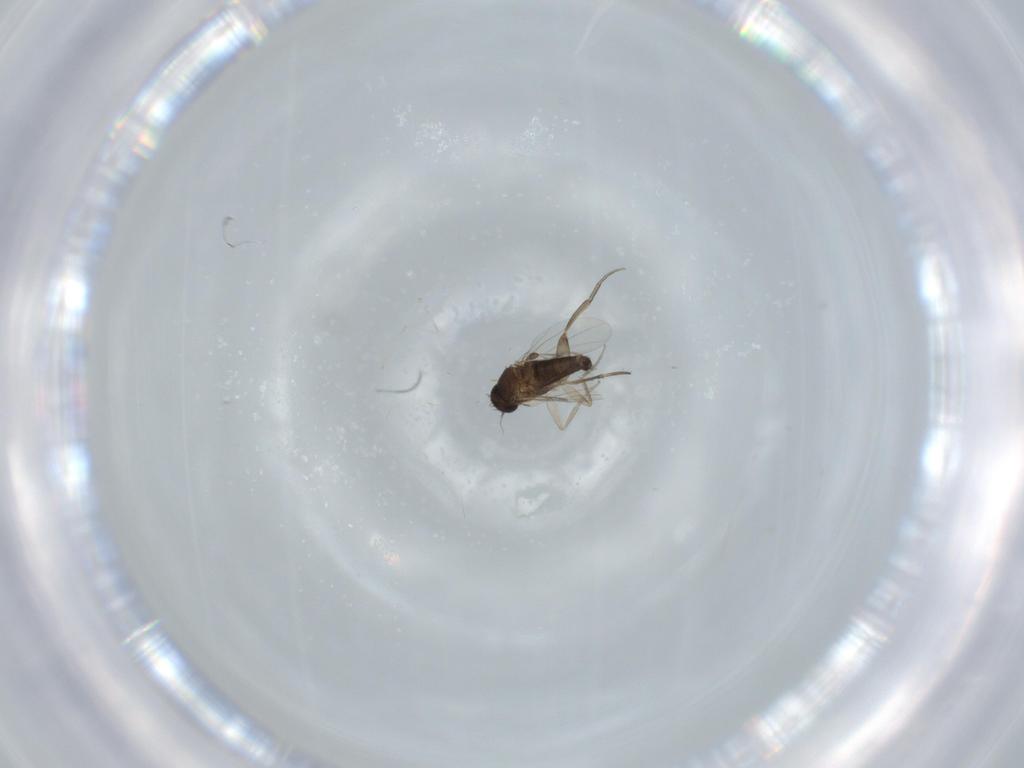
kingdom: Animalia
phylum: Arthropoda
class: Insecta
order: Diptera
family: Cecidomyiidae
